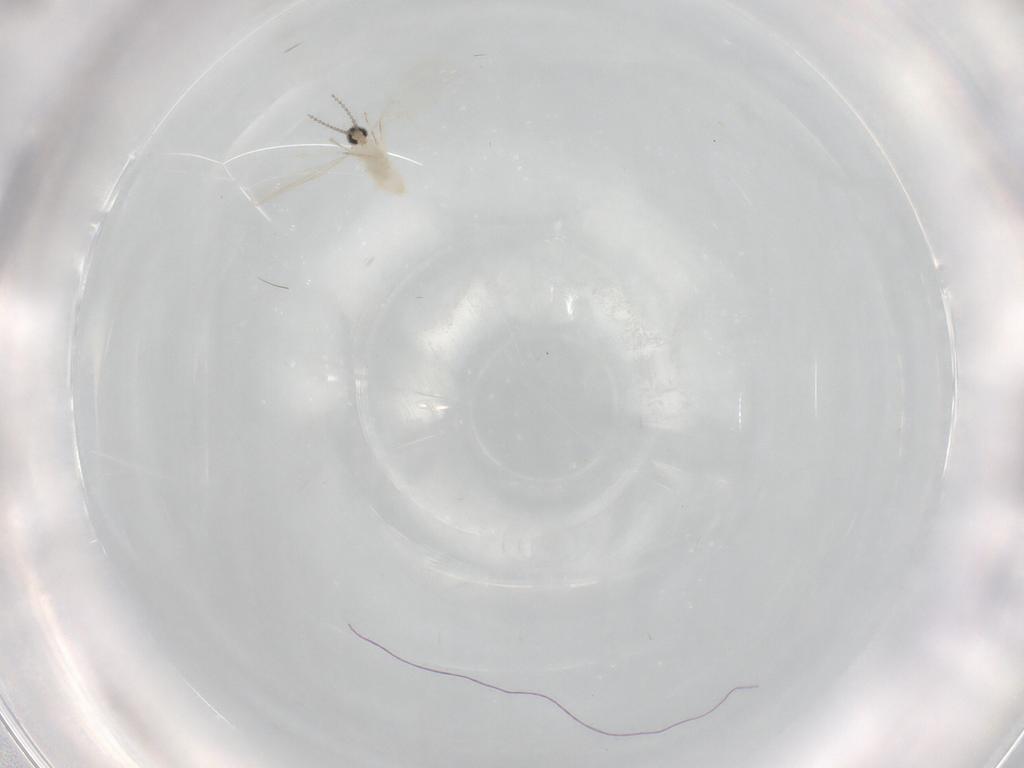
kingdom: Animalia
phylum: Arthropoda
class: Insecta
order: Diptera
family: Cecidomyiidae
